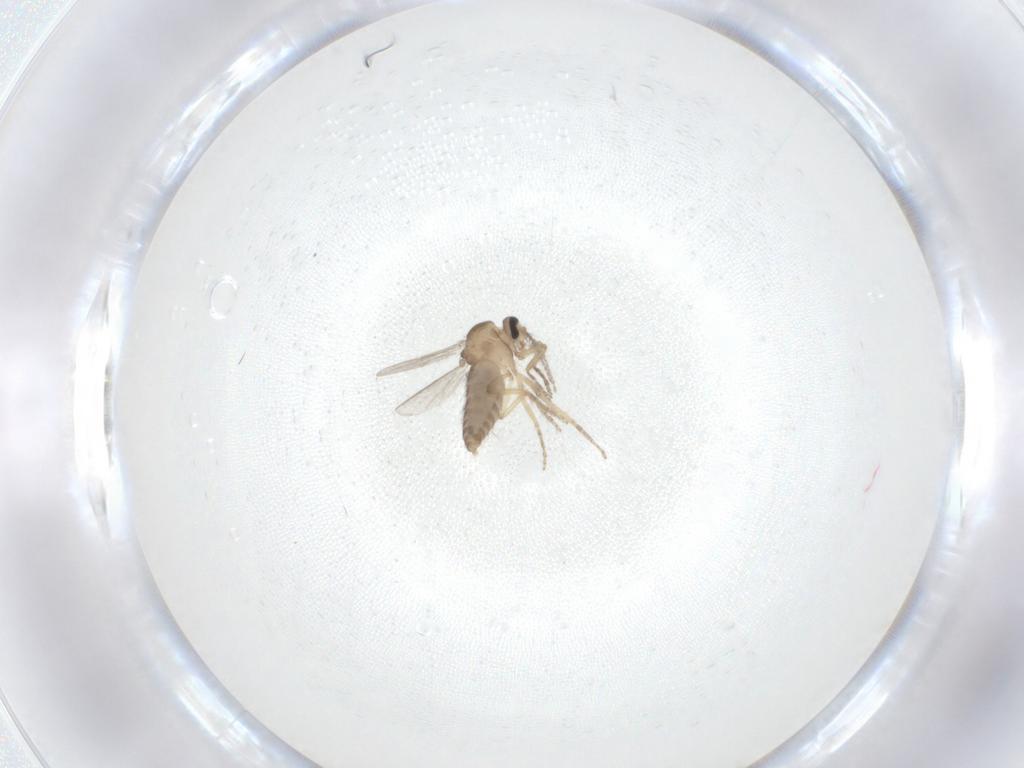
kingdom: Animalia
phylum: Arthropoda
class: Insecta
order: Diptera
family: Ceratopogonidae
